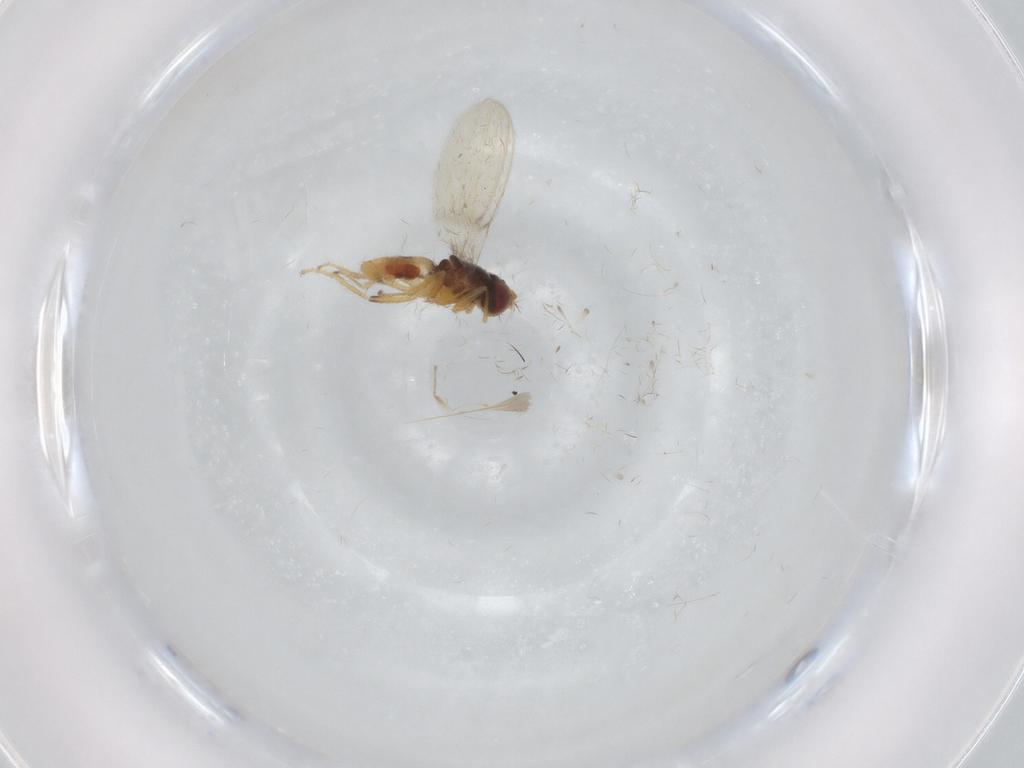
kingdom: Animalia
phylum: Arthropoda
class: Insecta
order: Diptera
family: Periscelididae
